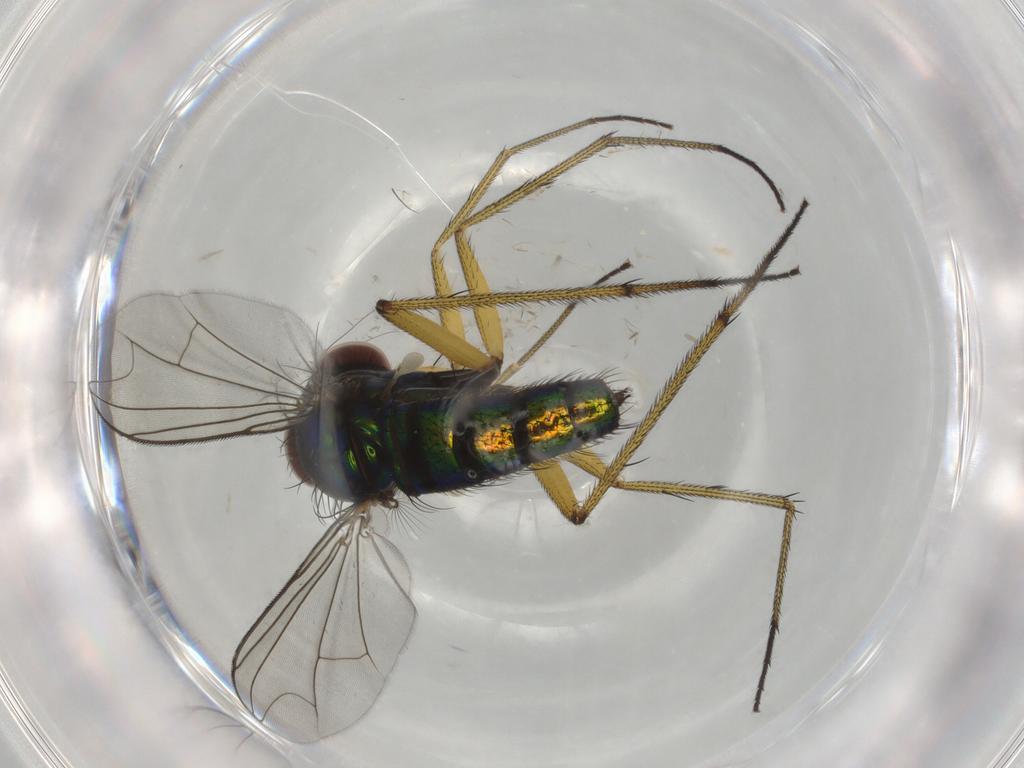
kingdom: Animalia
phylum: Arthropoda
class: Insecta
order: Diptera
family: Dolichopodidae
